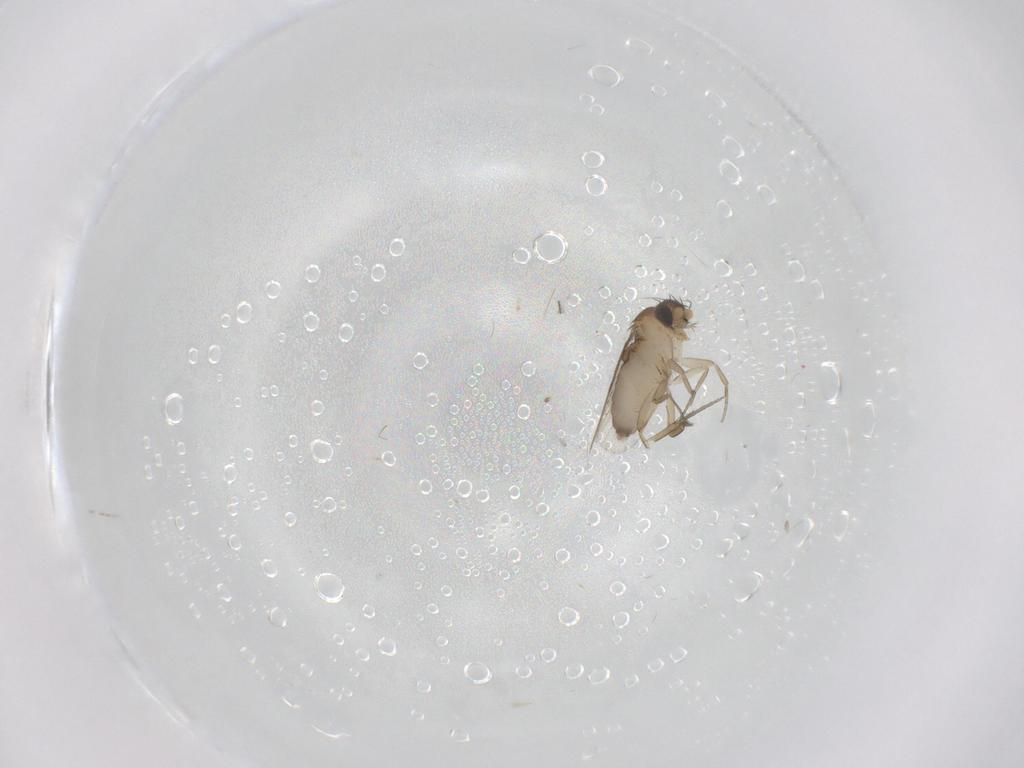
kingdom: Animalia
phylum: Arthropoda
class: Insecta
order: Diptera
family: Phoridae
